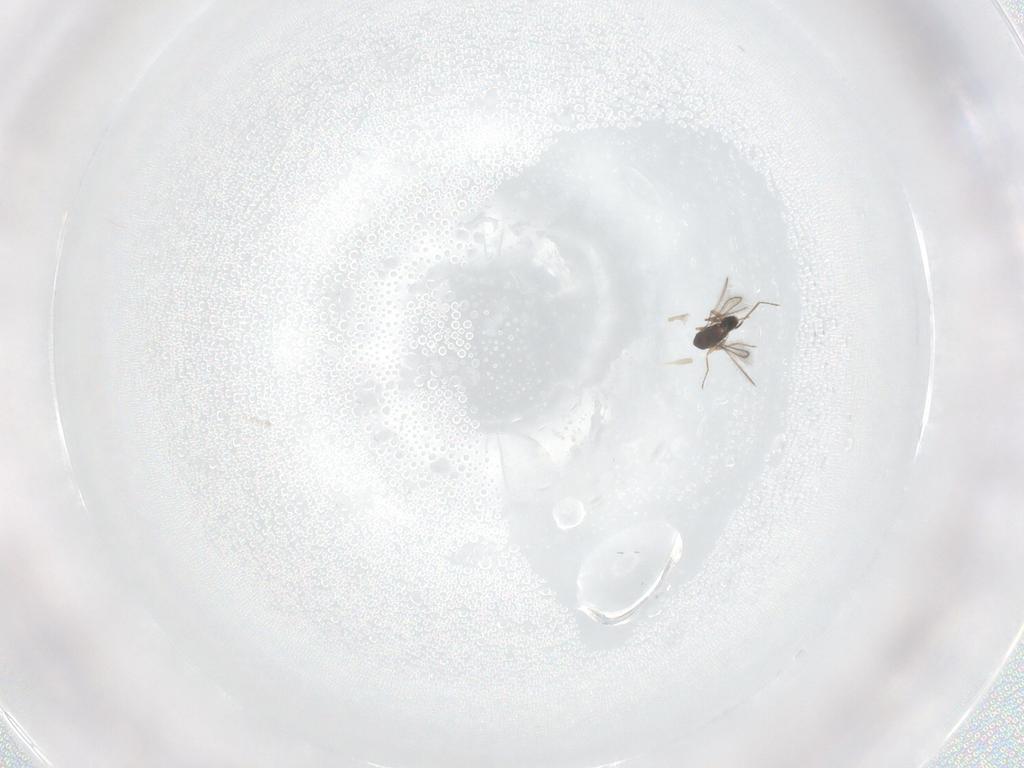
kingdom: Animalia
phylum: Arthropoda
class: Insecta
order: Hymenoptera
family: Mymaridae
